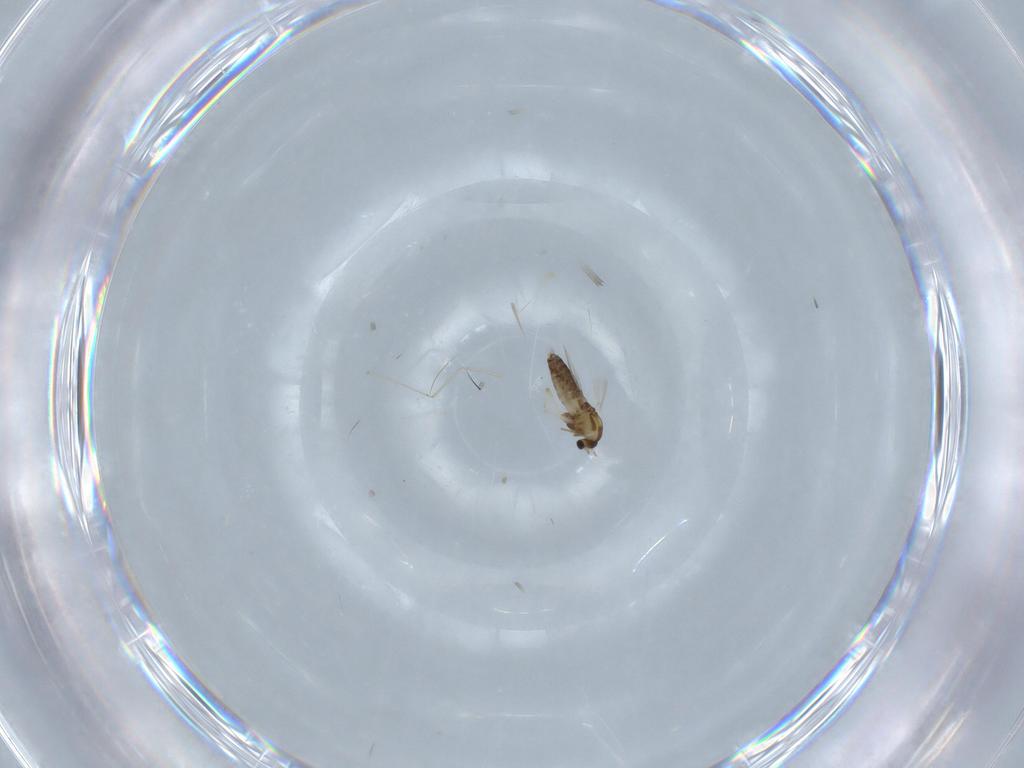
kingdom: Animalia
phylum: Arthropoda
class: Insecta
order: Diptera
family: Chironomidae
